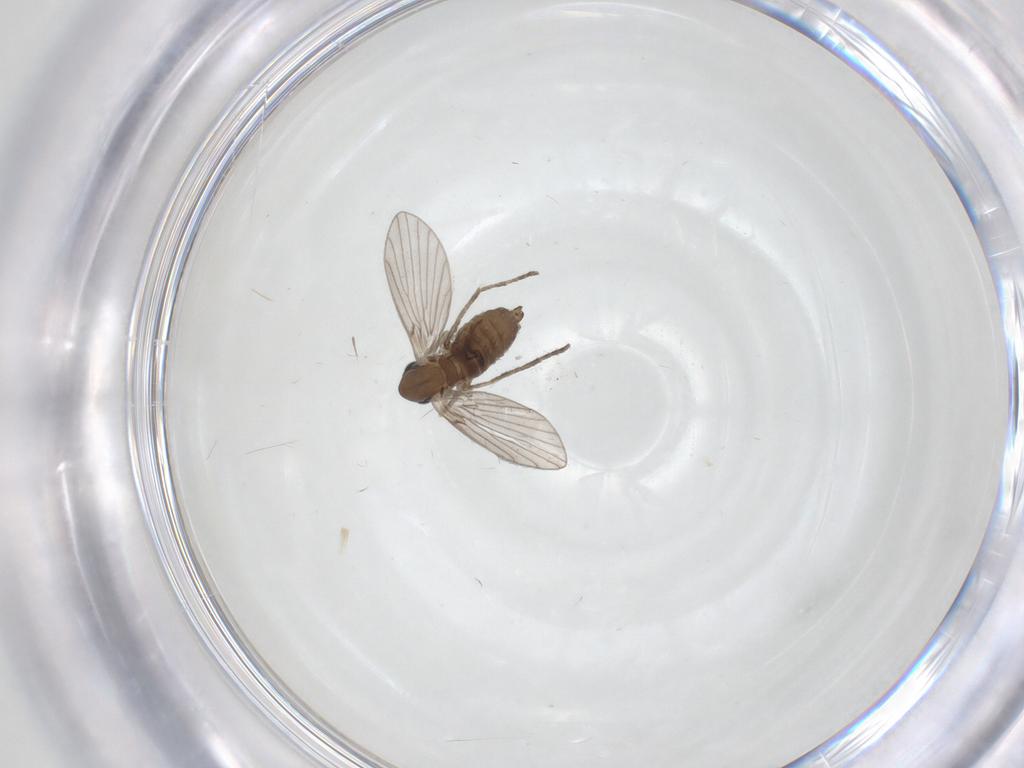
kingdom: Animalia
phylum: Arthropoda
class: Insecta
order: Diptera
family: Psychodidae
